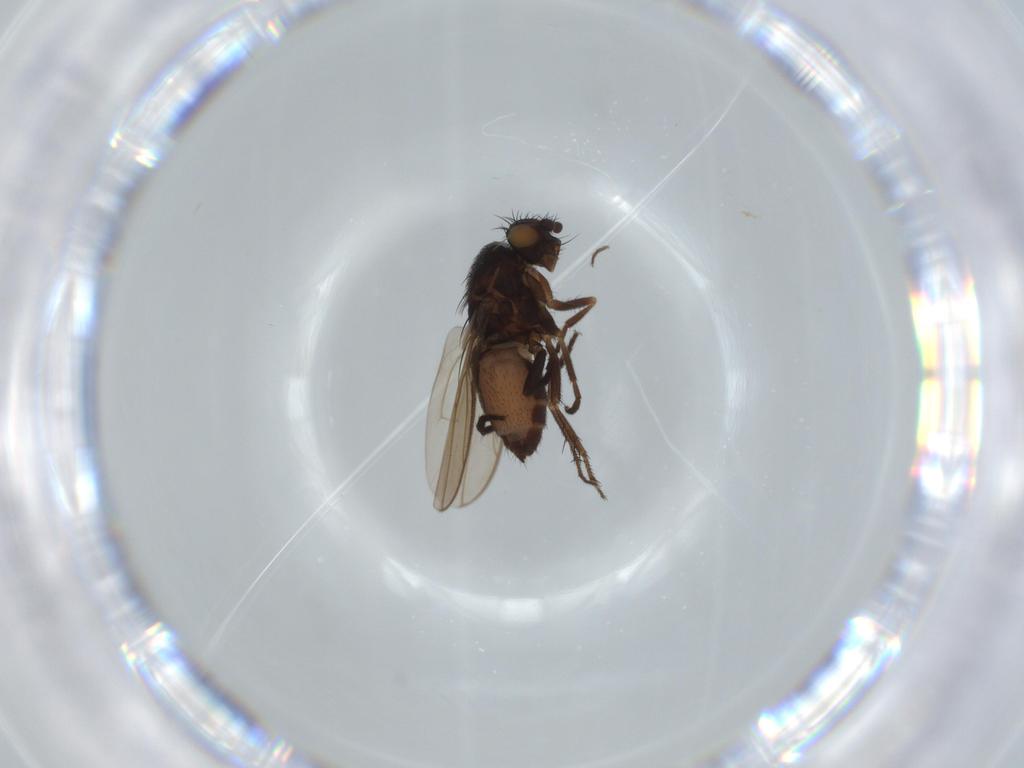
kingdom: Animalia
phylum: Arthropoda
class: Insecta
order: Diptera
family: Sphaeroceridae
